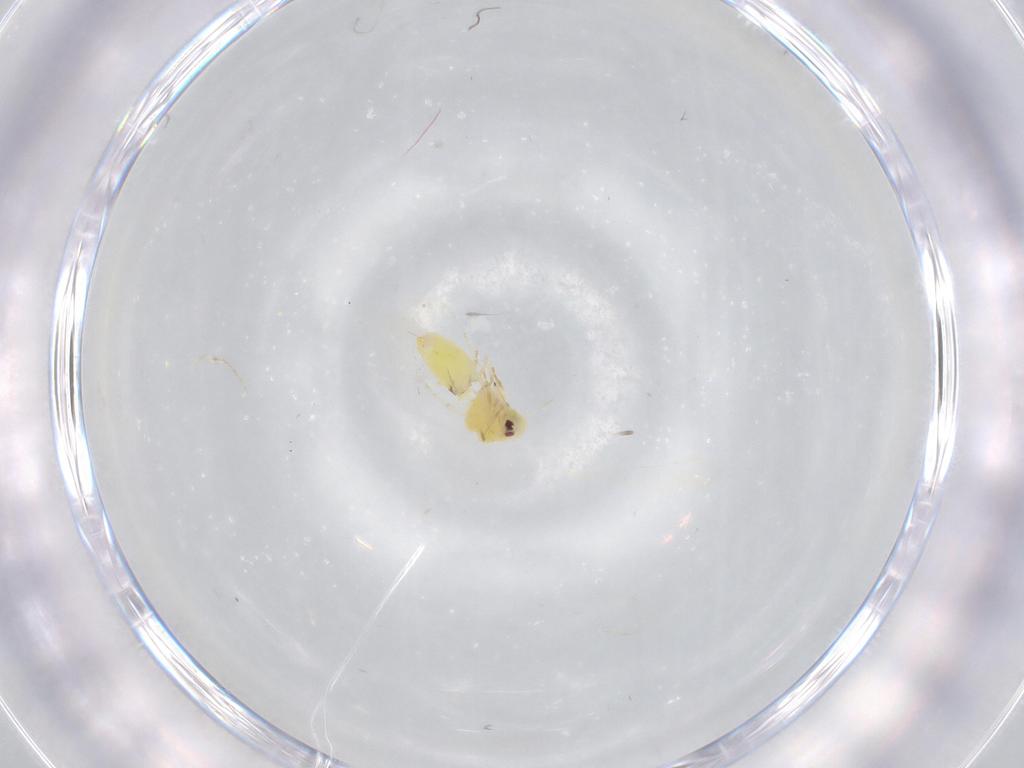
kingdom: Animalia
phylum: Arthropoda
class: Insecta
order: Hemiptera
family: Aleyrodidae
